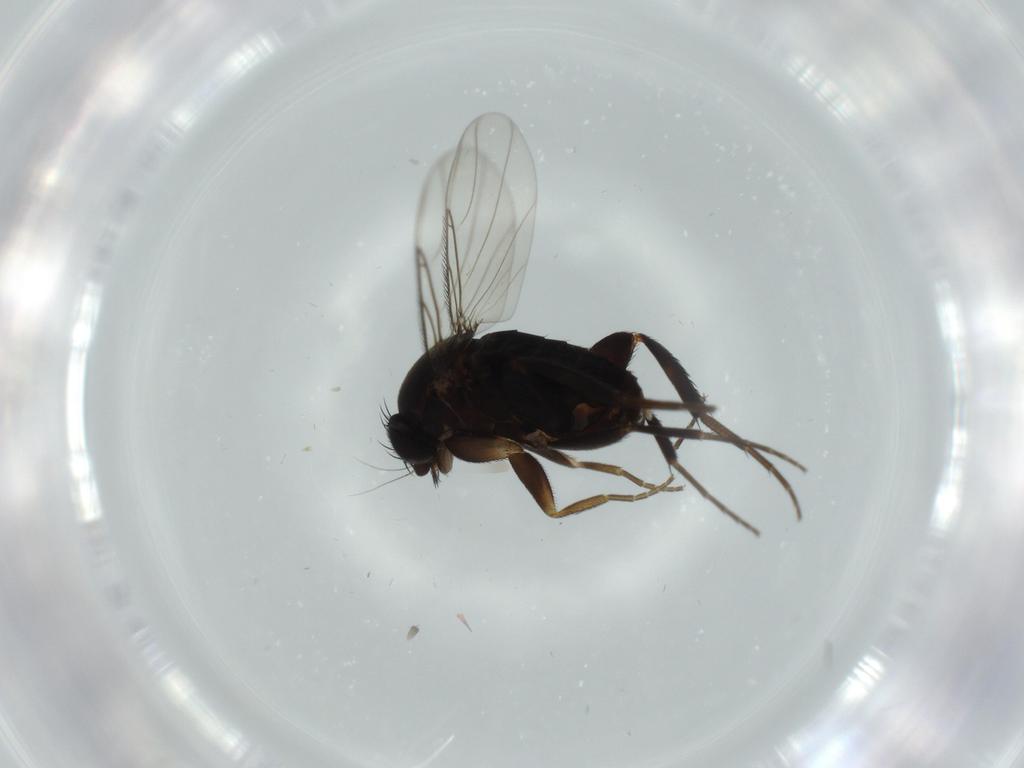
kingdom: Animalia
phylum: Arthropoda
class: Insecta
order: Diptera
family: Phoridae
